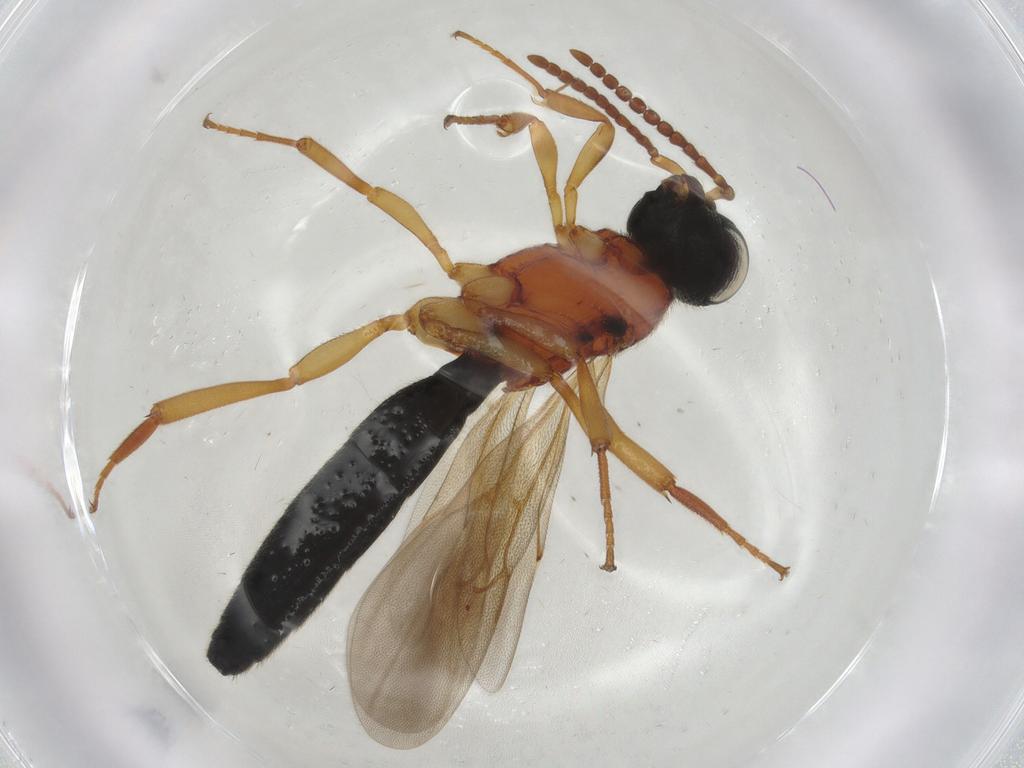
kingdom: Animalia
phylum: Arthropoda
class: Insecta
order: Hymenoptera
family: Scelionidae
